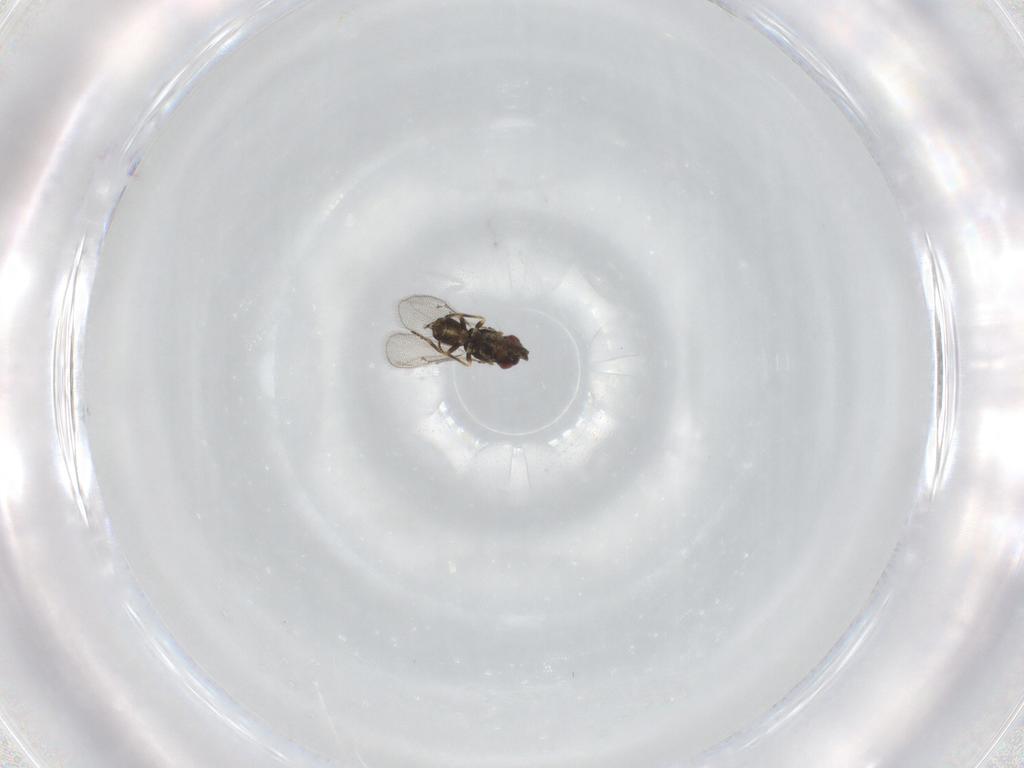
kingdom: Animalia
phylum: Arthropoda
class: Insecta
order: Hymenoptera
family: Eulophidae
